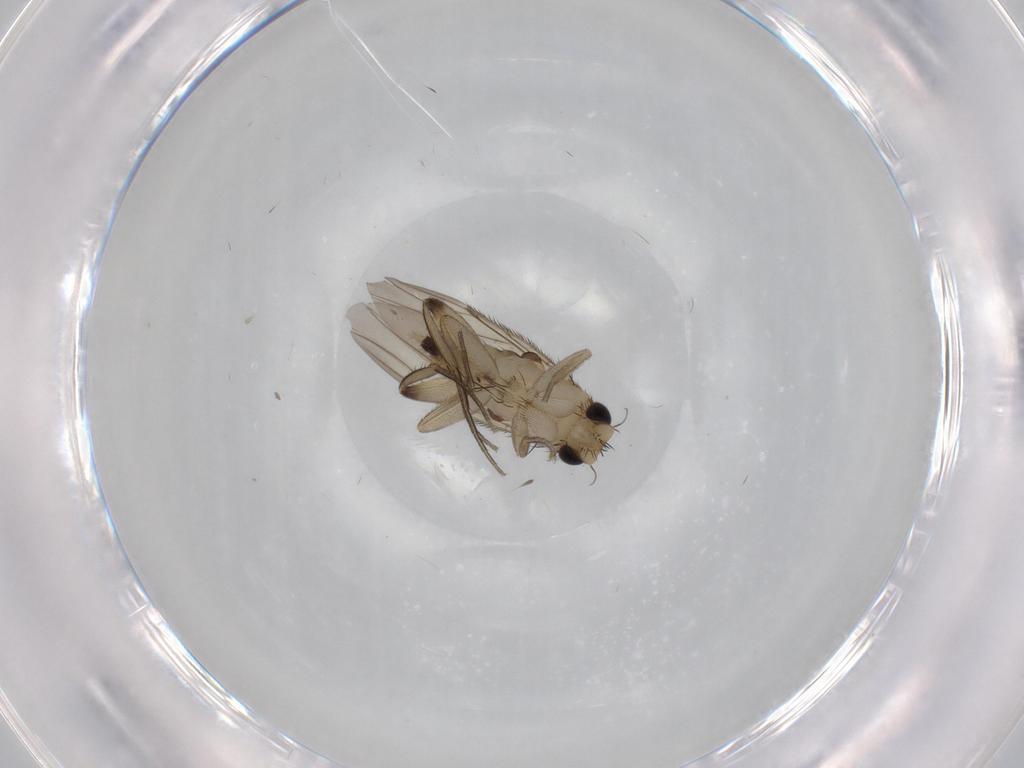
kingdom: Animalia
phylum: Arthropoda
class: Insecta
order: Diptera
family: Phoridae
